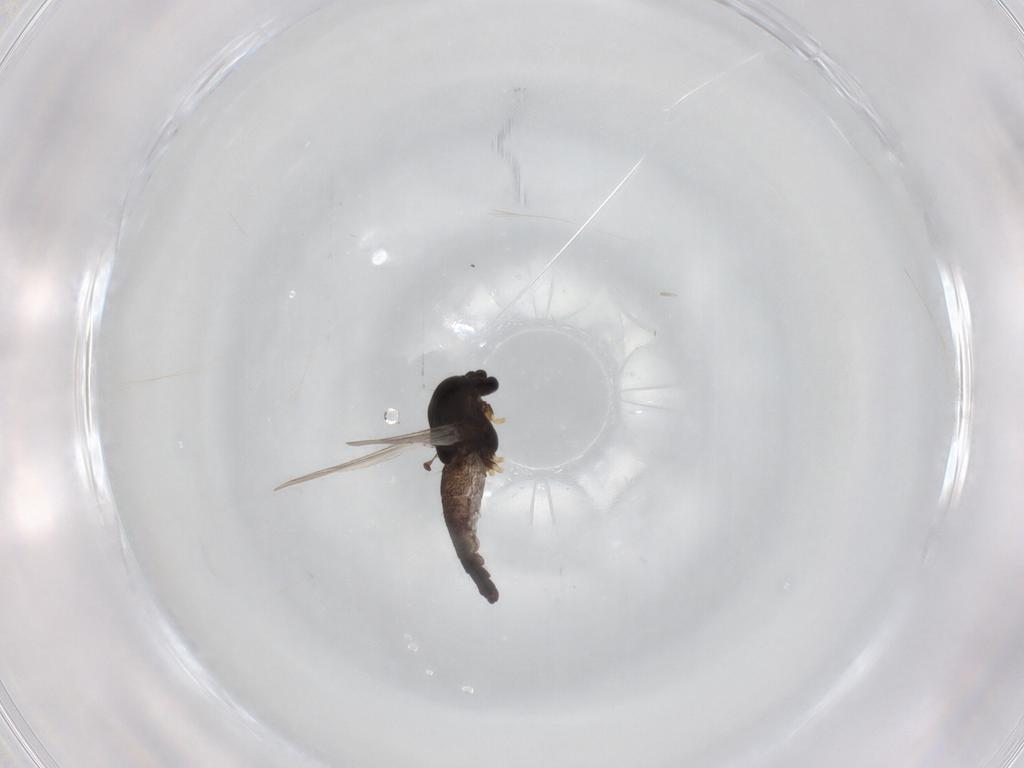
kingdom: Animalia
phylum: Arthropoda
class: Insecta
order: Diptera
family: Chironomidae
